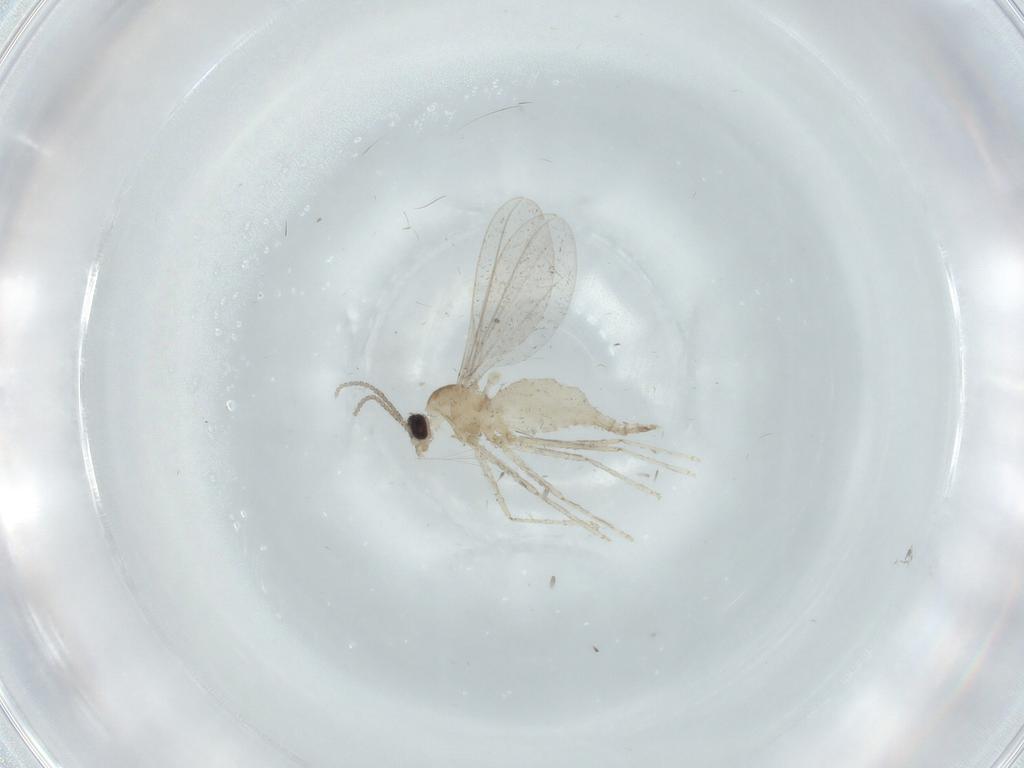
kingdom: Animalia
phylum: Arthropoda
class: Insecta
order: Diptera
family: Cecidomyiidae
